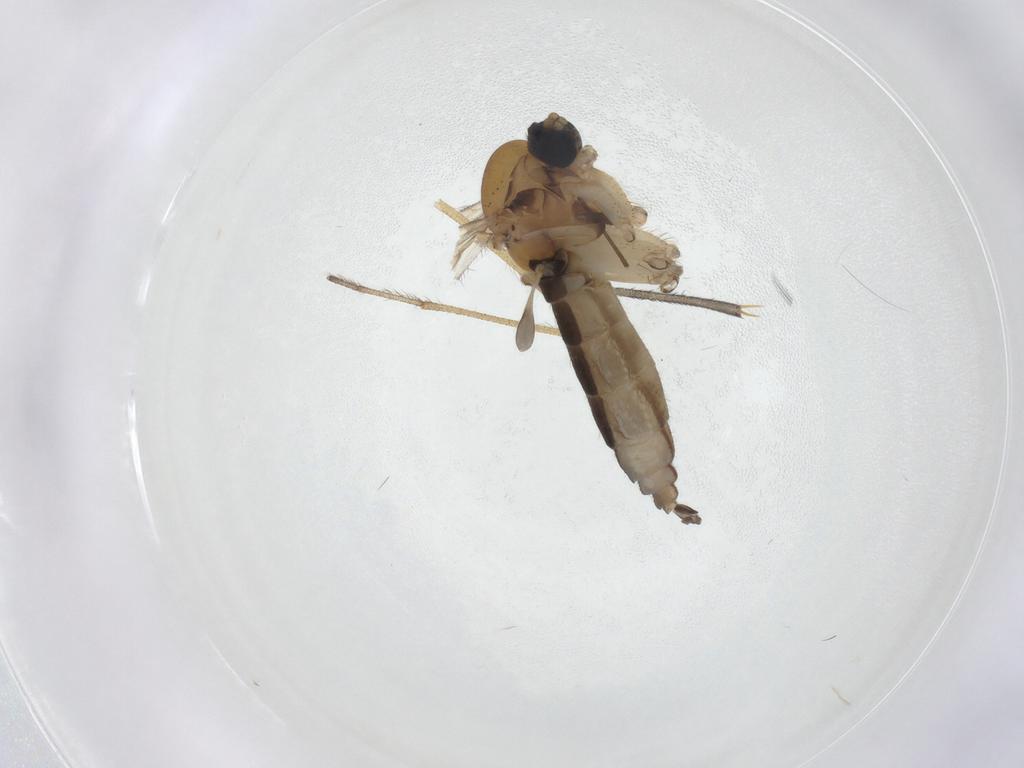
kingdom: Animalia
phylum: Arthropoda
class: Insecta
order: Diptera
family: Sciaridae
